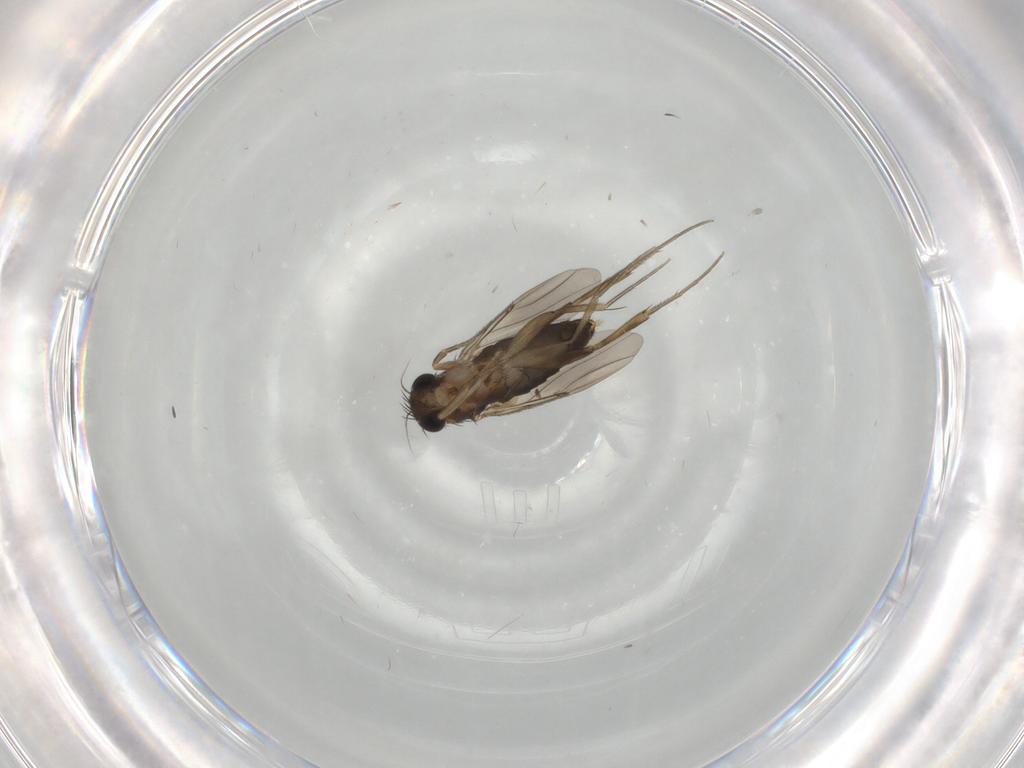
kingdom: Animalia
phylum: Arthropoda
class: Insecta
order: Diptera
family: Phoridae
